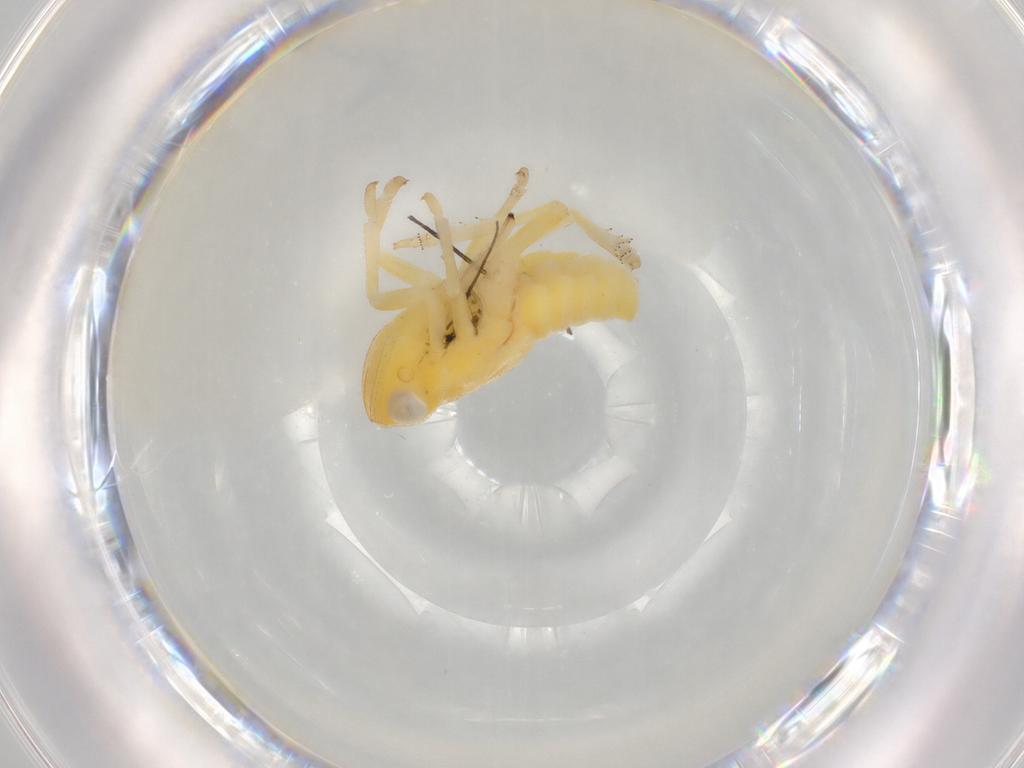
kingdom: Animalia
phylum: Arthropoda
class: Insecta
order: Hemiptera
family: Fulgoroidea_incertae_sedis
